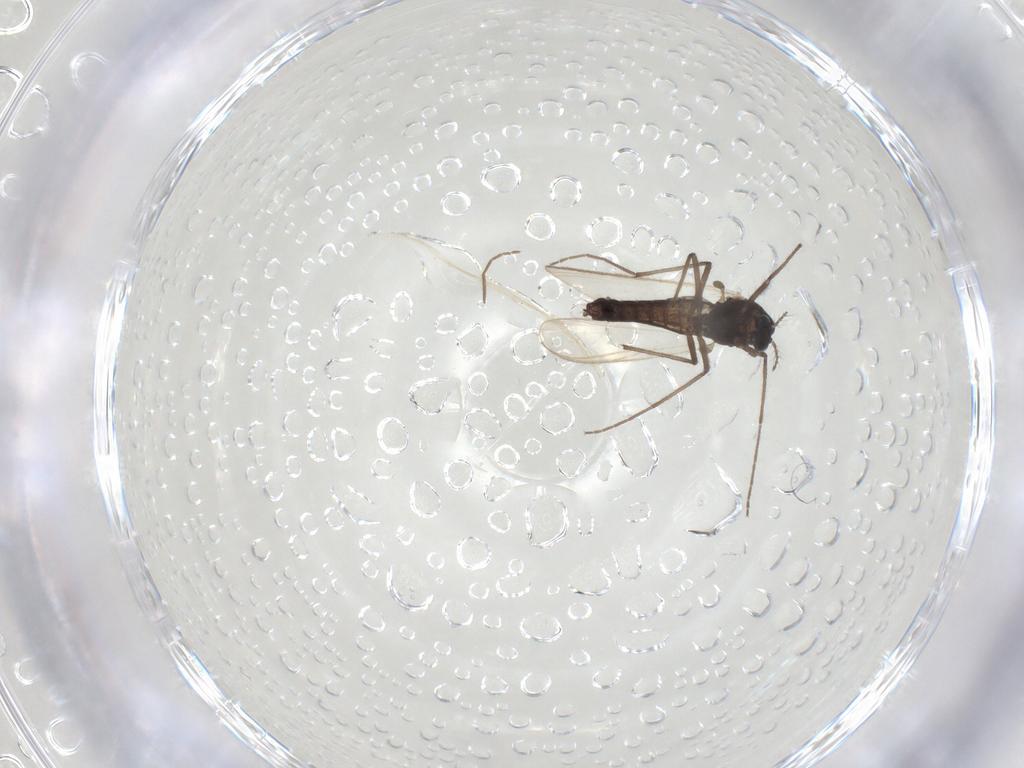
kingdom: Animalia
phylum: Arthropoda
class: Insecta
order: Diptera
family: Chironomidae
